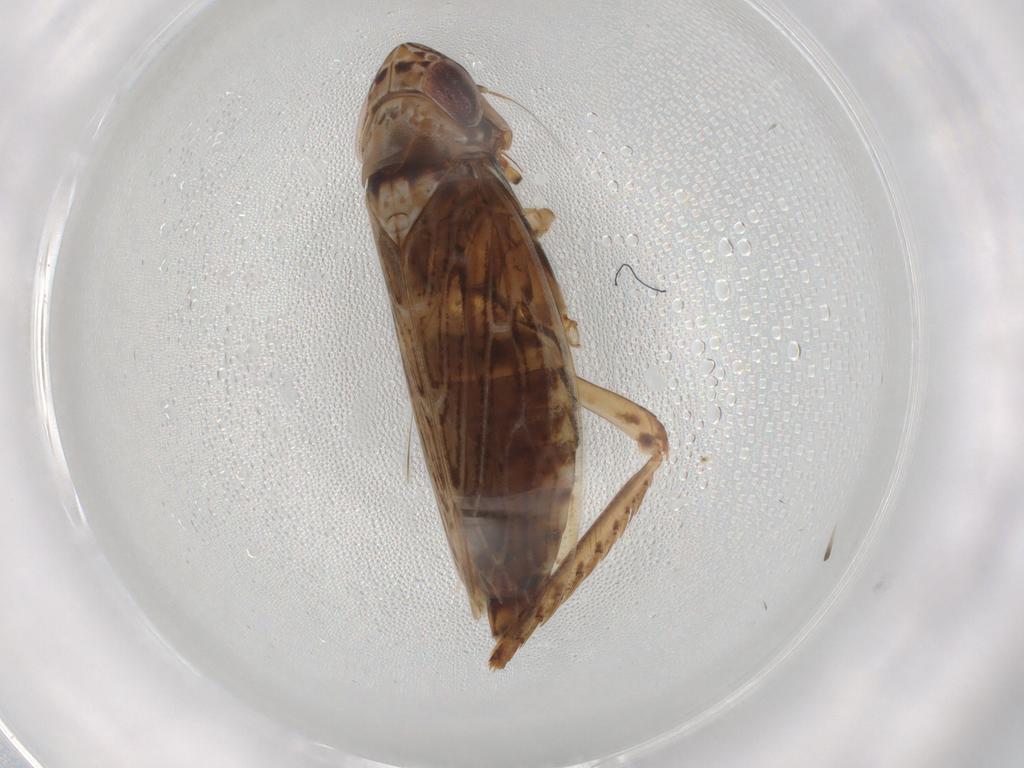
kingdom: Animalia
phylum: Arthropoda
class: Insecta
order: Hemiptera
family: Cicadellidae
